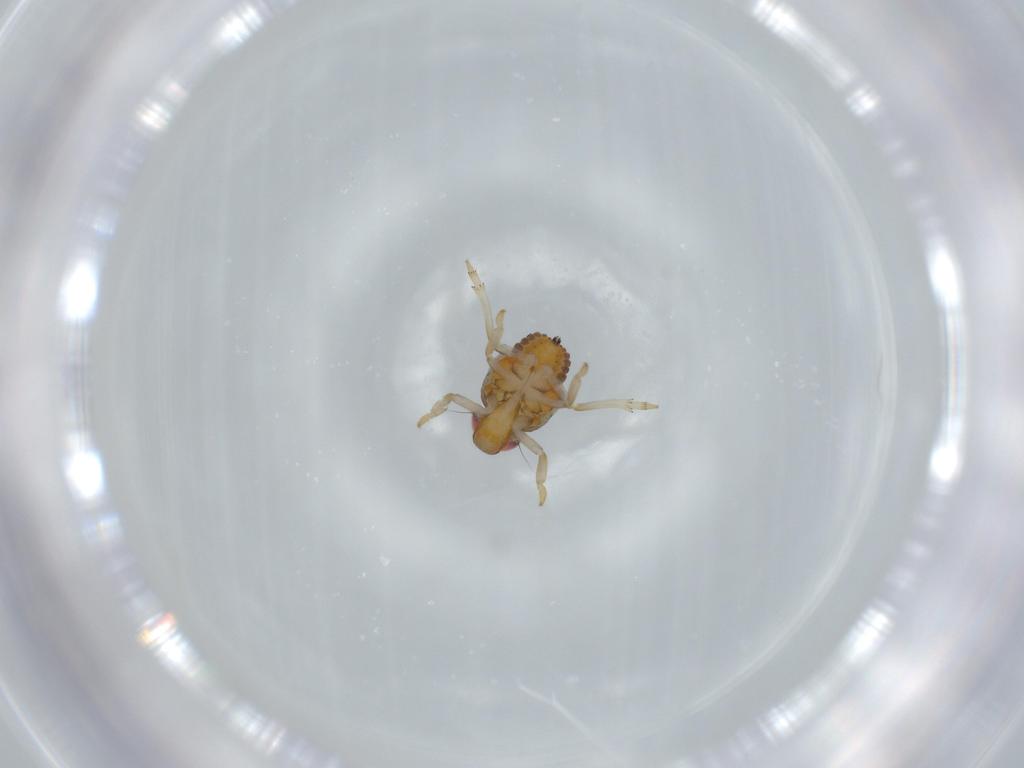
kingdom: Animalia
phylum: Arthropoda
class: Insecta
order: Hemiptera
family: Issidae
